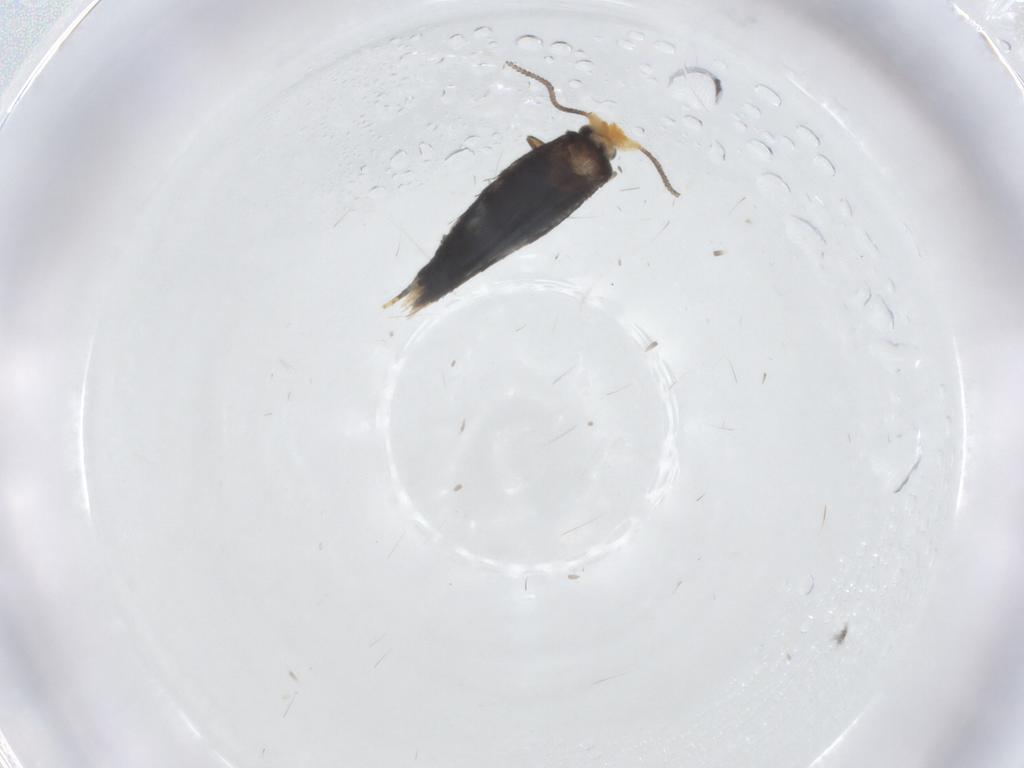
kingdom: Animalia
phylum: Arthropoda
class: Insecta
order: Lepidoptera
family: Nepticulidae
